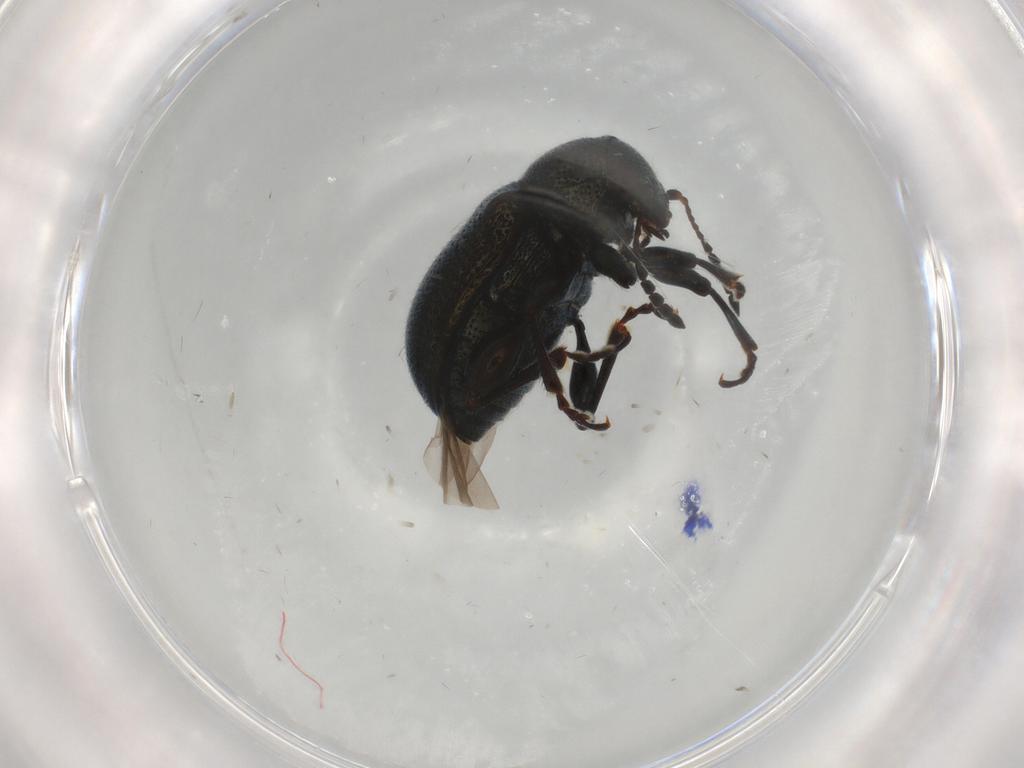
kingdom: Animalia
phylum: Arthropoda
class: Insecta
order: Coleoptera
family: Chrysomelidae
